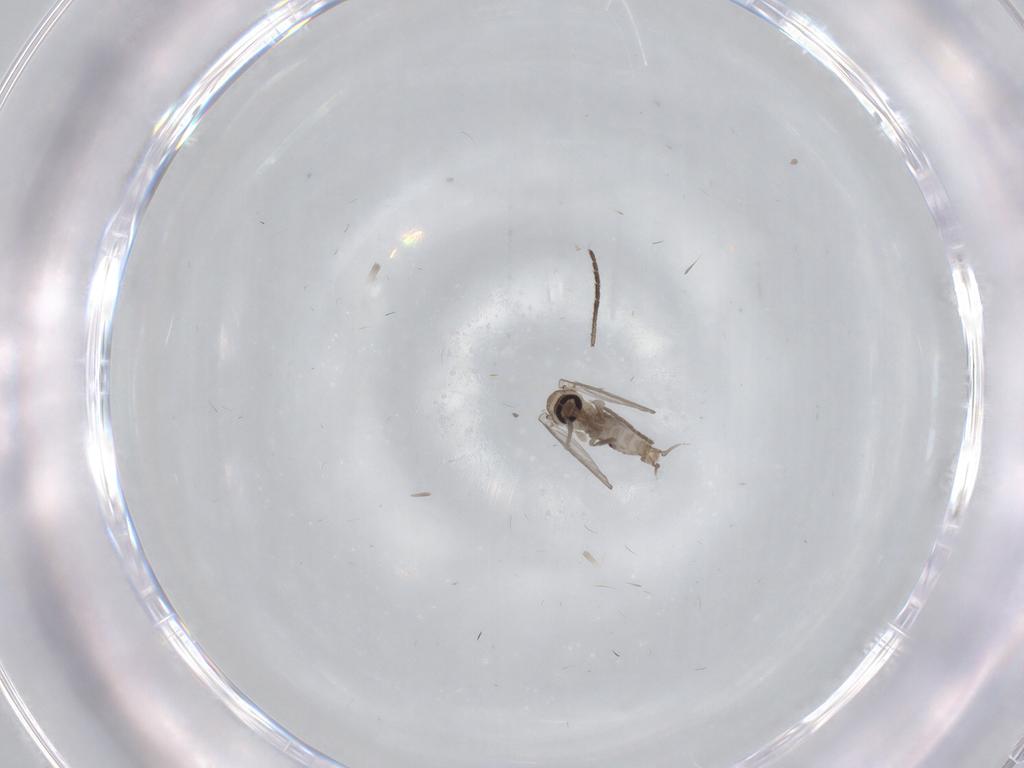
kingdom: Animalia
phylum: Arthropoda
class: Insecta
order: Diptera
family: Psychodidae
